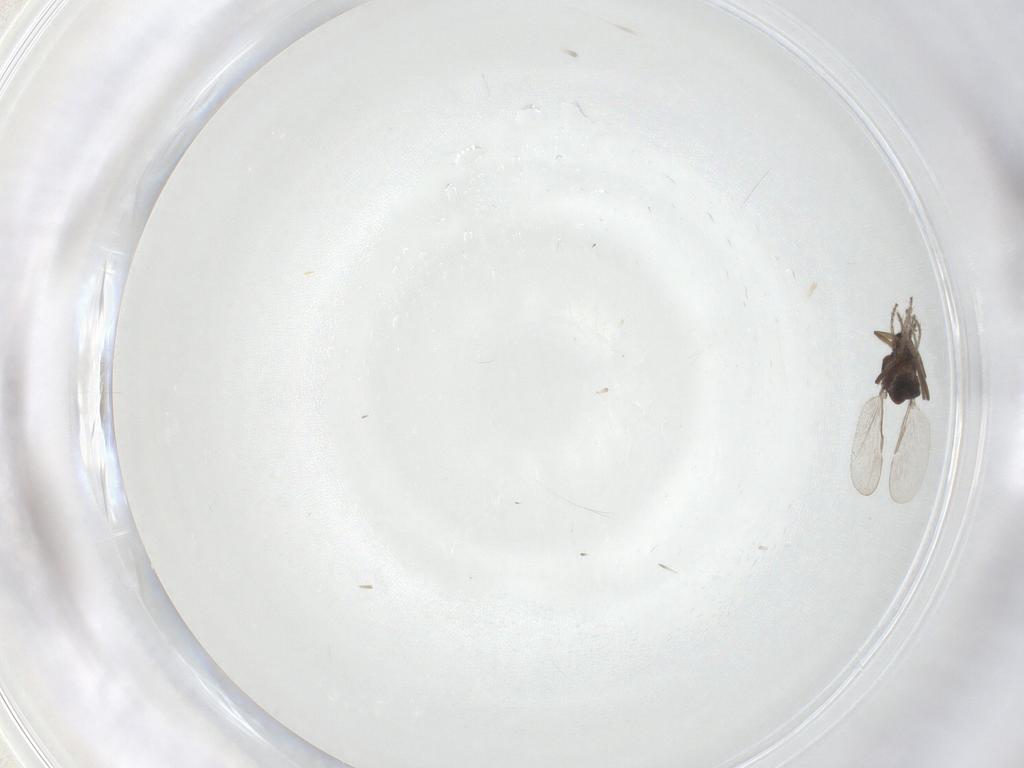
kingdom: Animalia
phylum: Arthropoda
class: Insecta
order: Diptera
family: Ceratopogonidae
